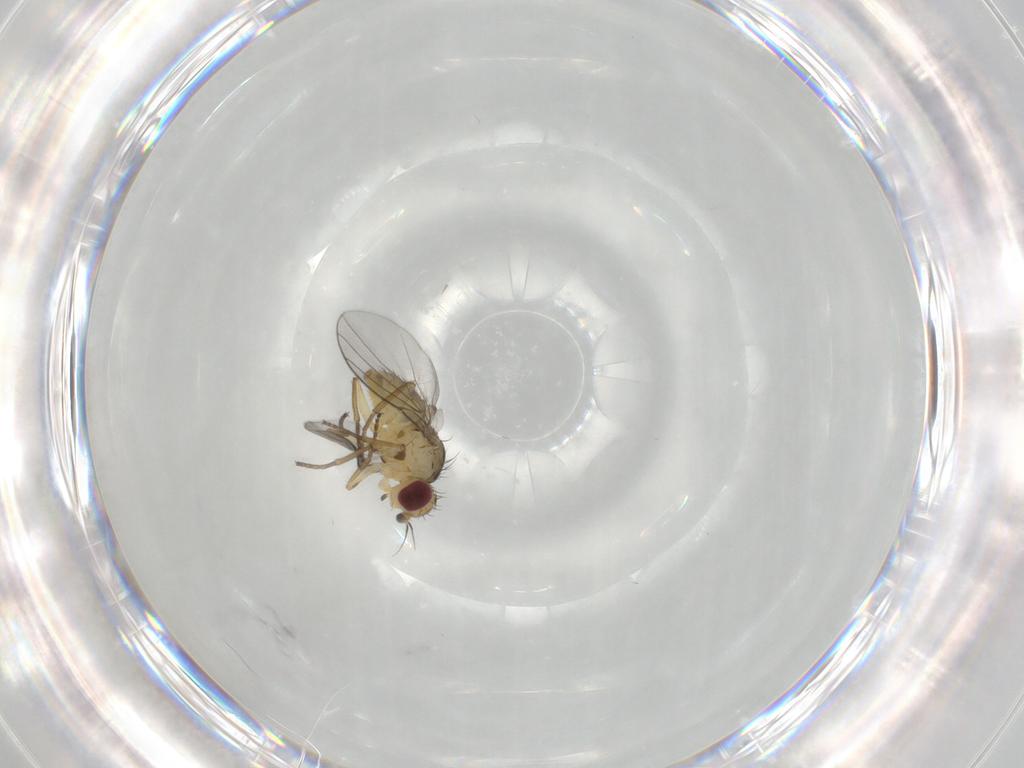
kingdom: Animalia
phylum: Arthropoda
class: Insecta
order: Diptera
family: Agromyzidae
